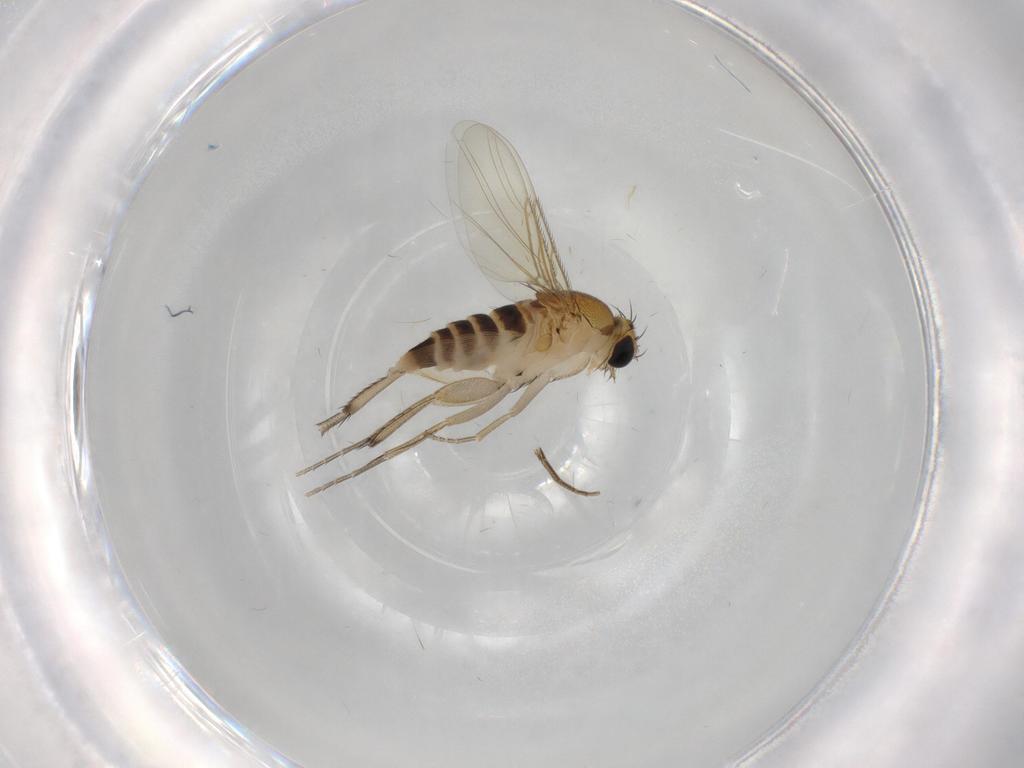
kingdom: Animalia
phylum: Arthropoda
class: Insecta
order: Diptera
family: Phoridae
